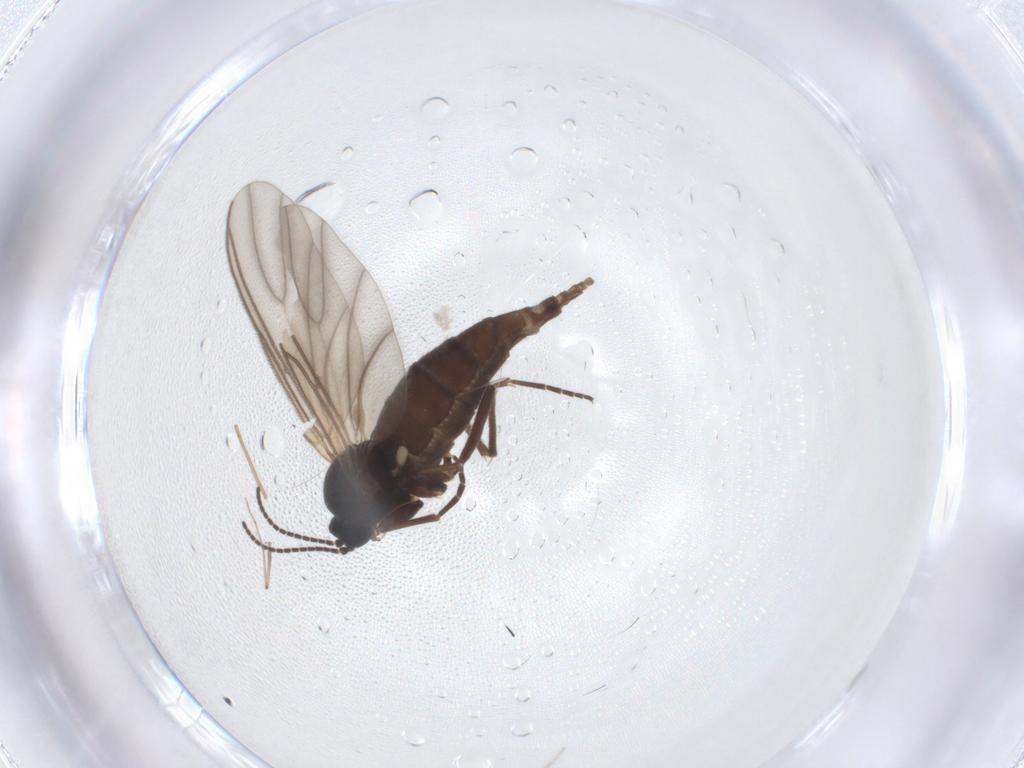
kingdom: Animalia
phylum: Arthropoda
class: Insecta
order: Diptera
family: Sciaridae
